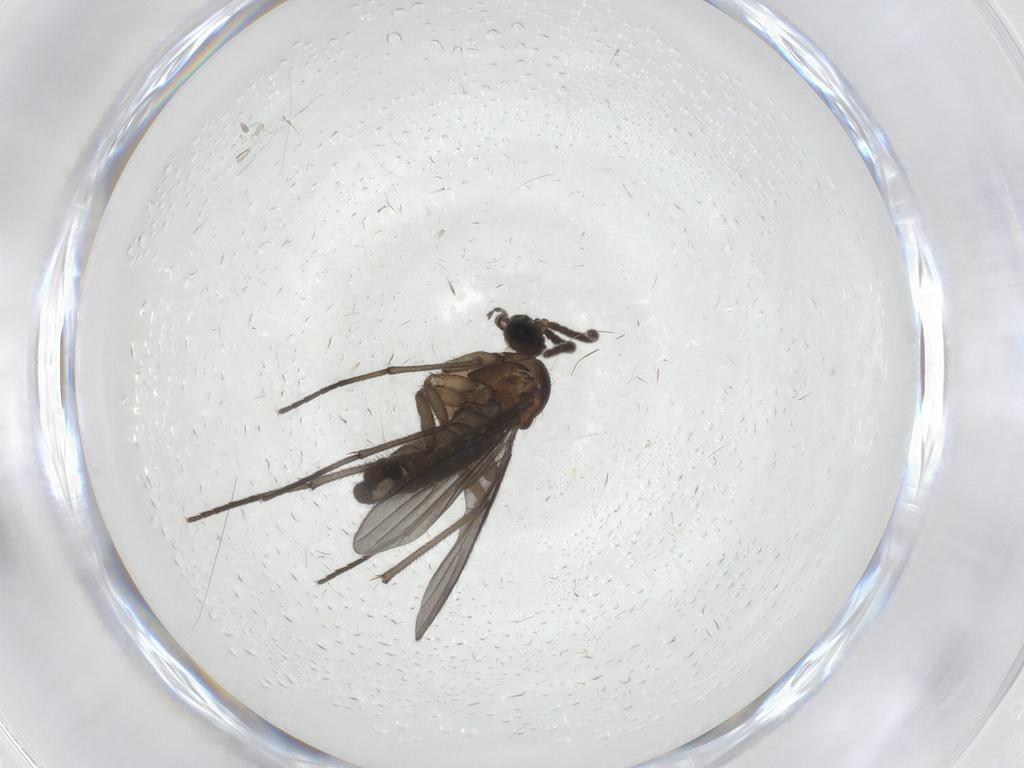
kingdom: Animalia
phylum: Arthropoda
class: Insecta
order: Diptera
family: Sciaridae
